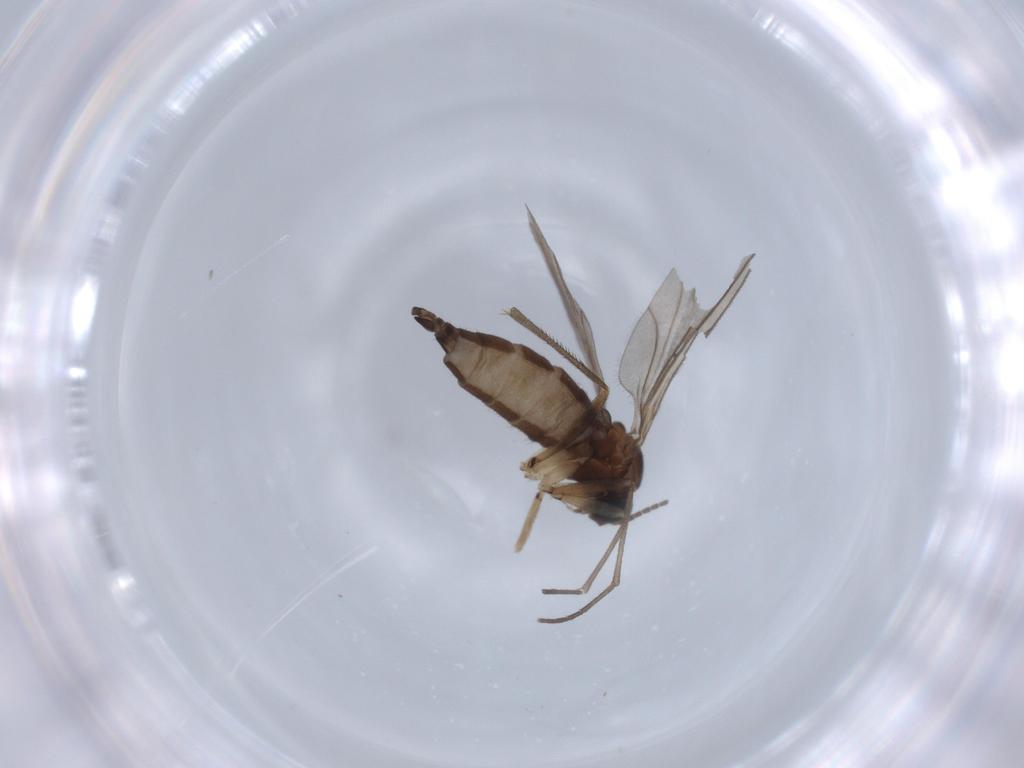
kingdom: Animalia
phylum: Arthropoda
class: Insecta
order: Diptera
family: Sciaridae
